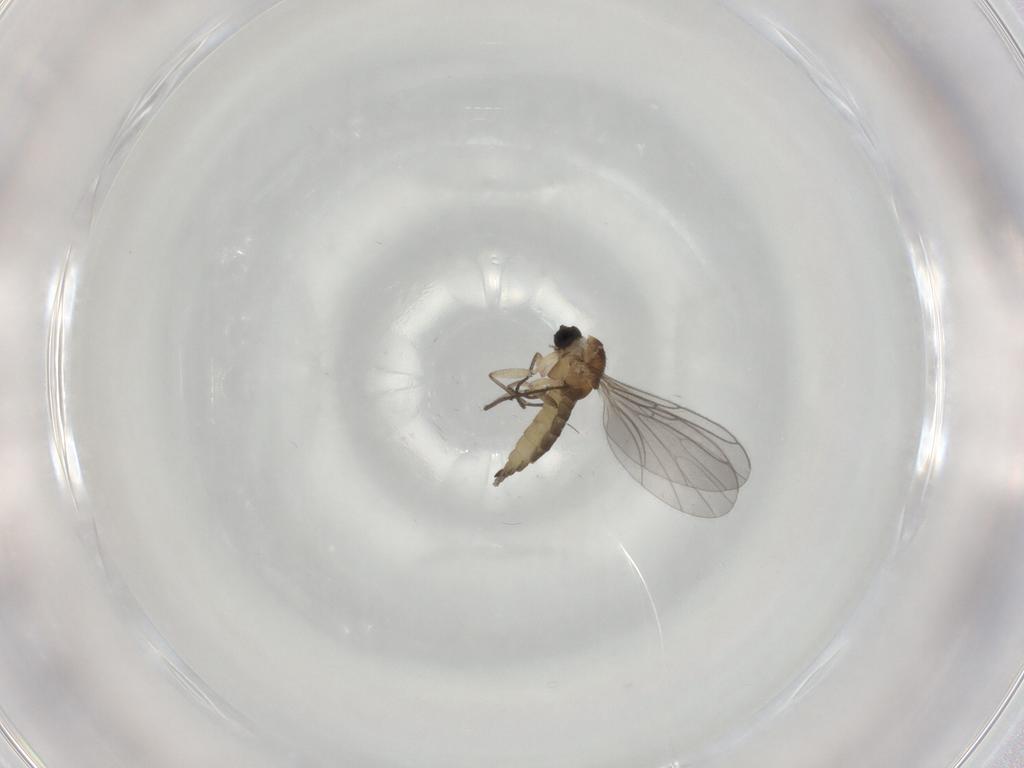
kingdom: Animalia
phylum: Arthropoda
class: Insecta
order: Diptera
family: Sciaridae
